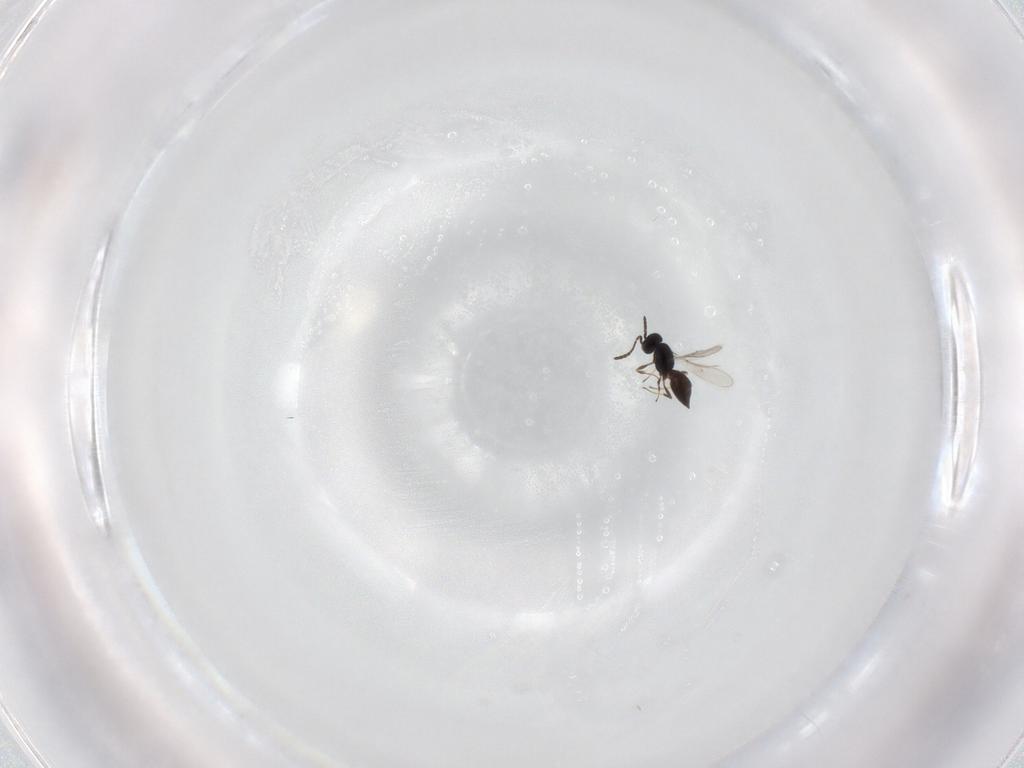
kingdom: Animalia
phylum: Arthropoda
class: Insecta
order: Hymenoptera
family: Scelionidae
